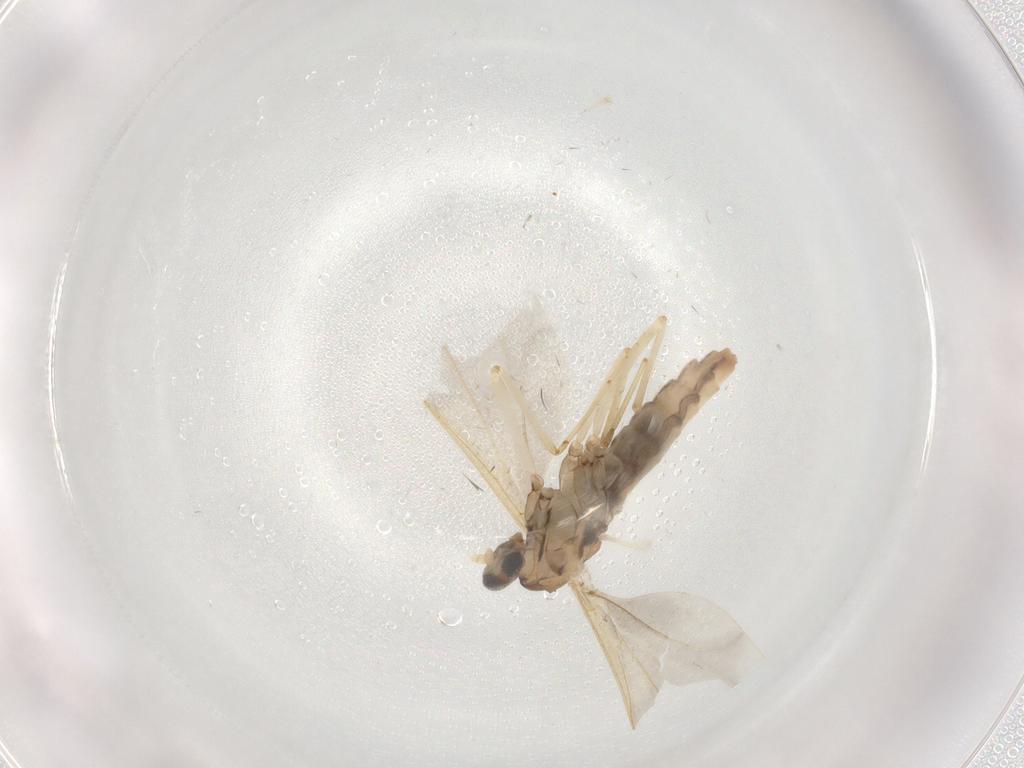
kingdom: Animalia
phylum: Arthropoda
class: Insecta
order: Diptera
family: Cecidomyiidae
